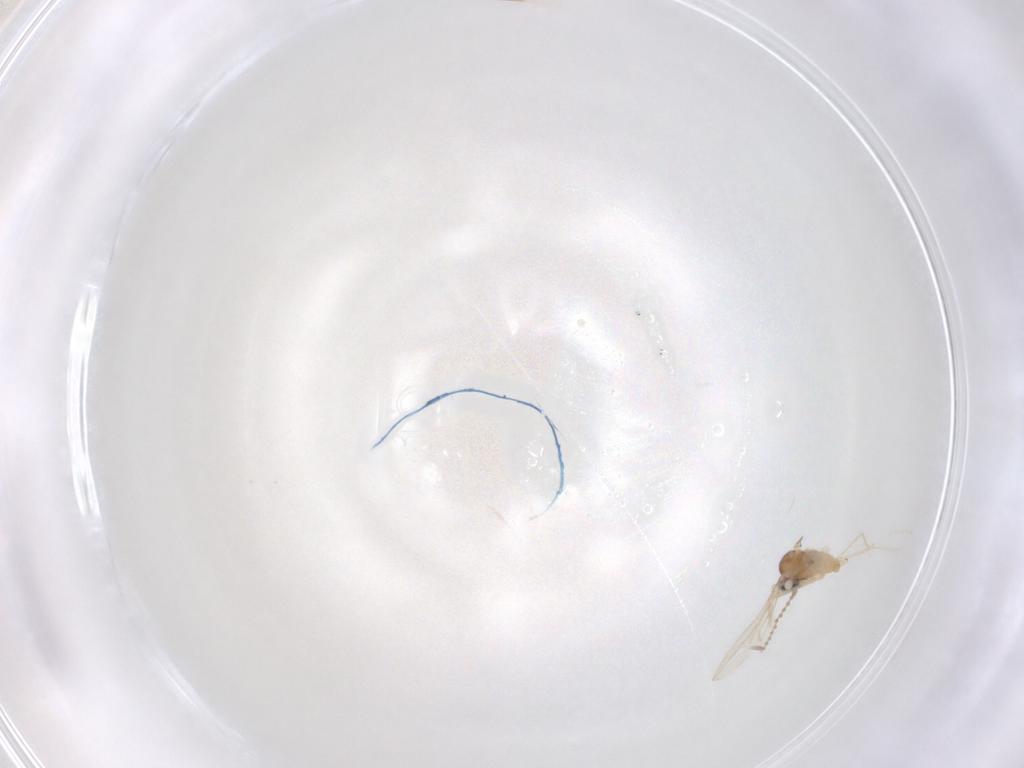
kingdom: Animalia
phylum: Arthropoda
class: Insecta
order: Diptera
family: Stratiomyidae
